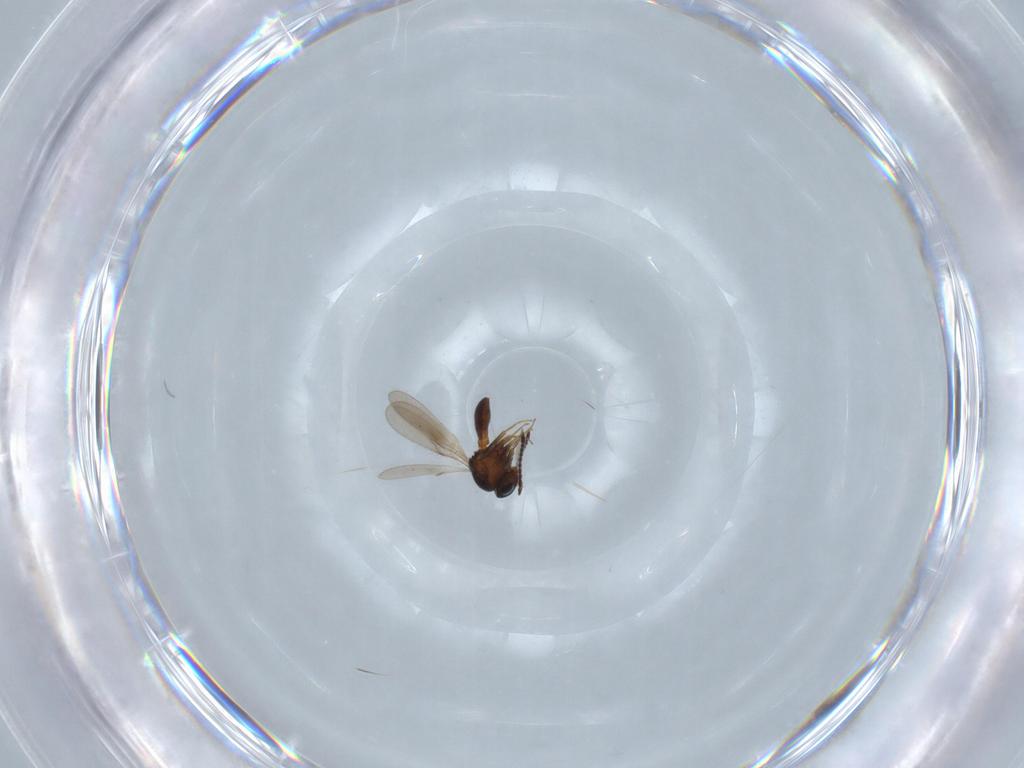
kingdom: Animalia
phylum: Arthropoda
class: Insecta
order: Hymenoptera
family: Scelionidae
